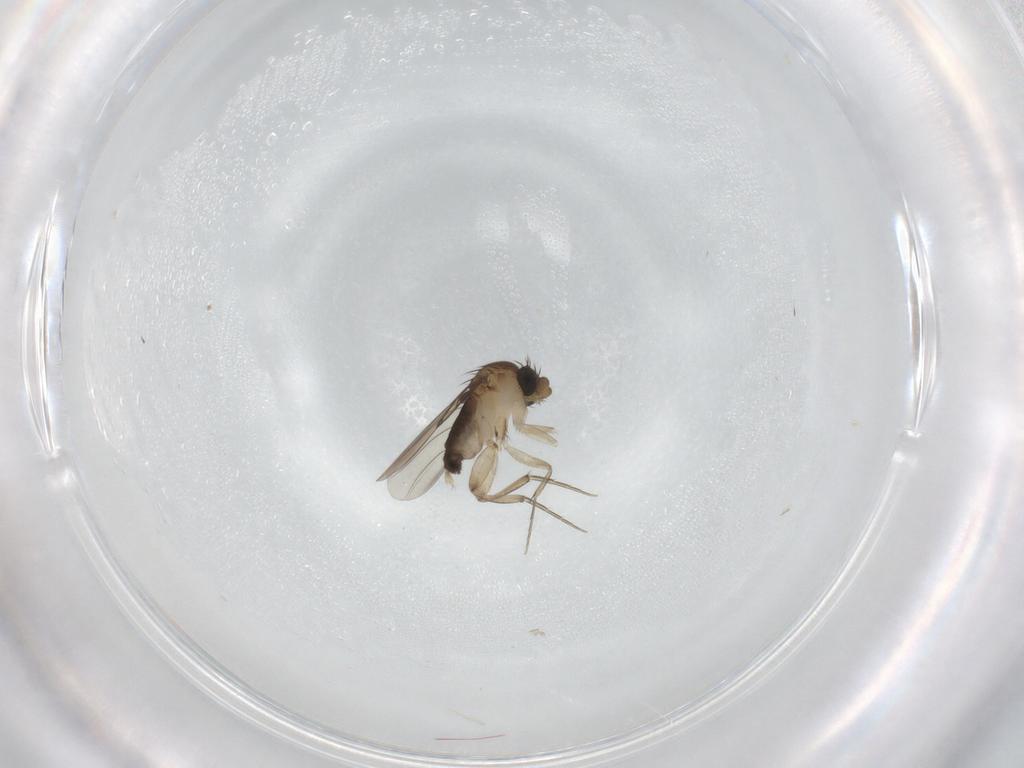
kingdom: Animalia
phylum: Arthropoda
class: Insecta
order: Diptera
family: Phoridae
